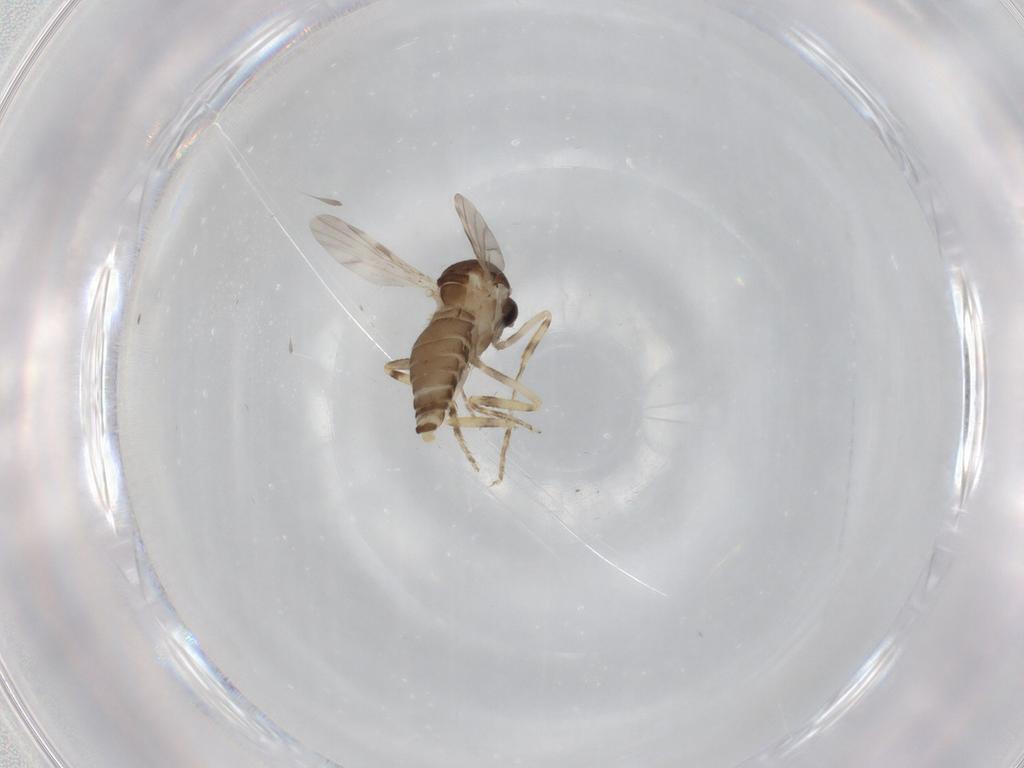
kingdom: Animalia
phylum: Arthropoda
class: Insecta
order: Diptera
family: Ceratopogonidae
